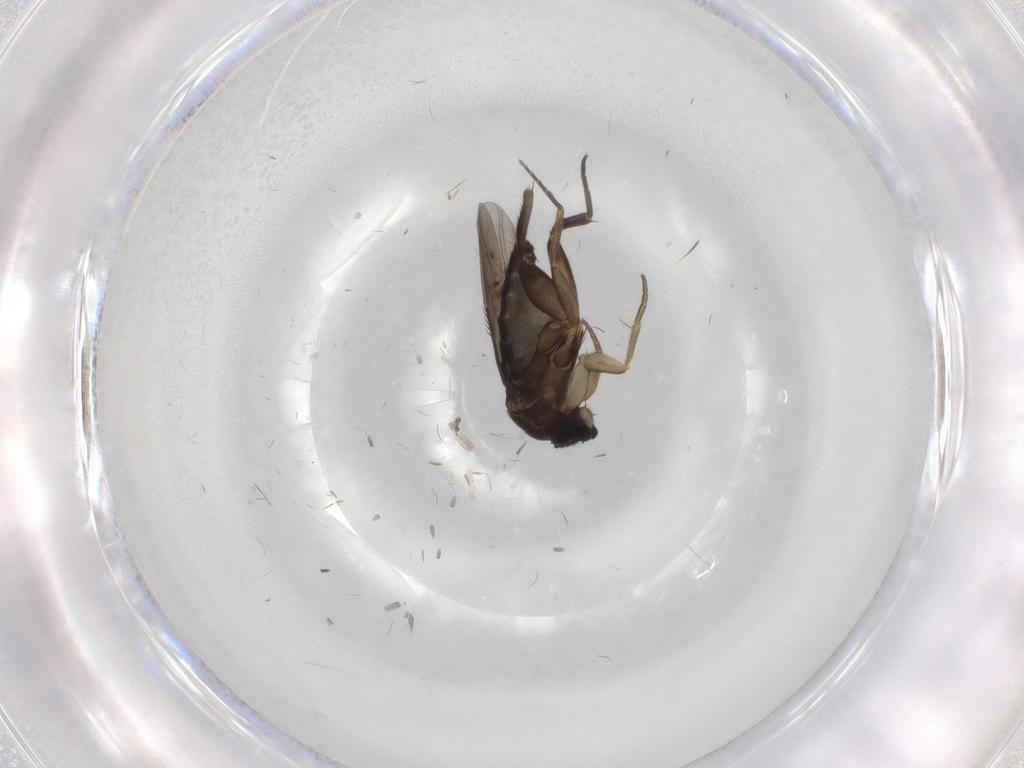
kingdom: Animalia
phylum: Arthropoda
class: Insecta
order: Diptera
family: Phoridae
